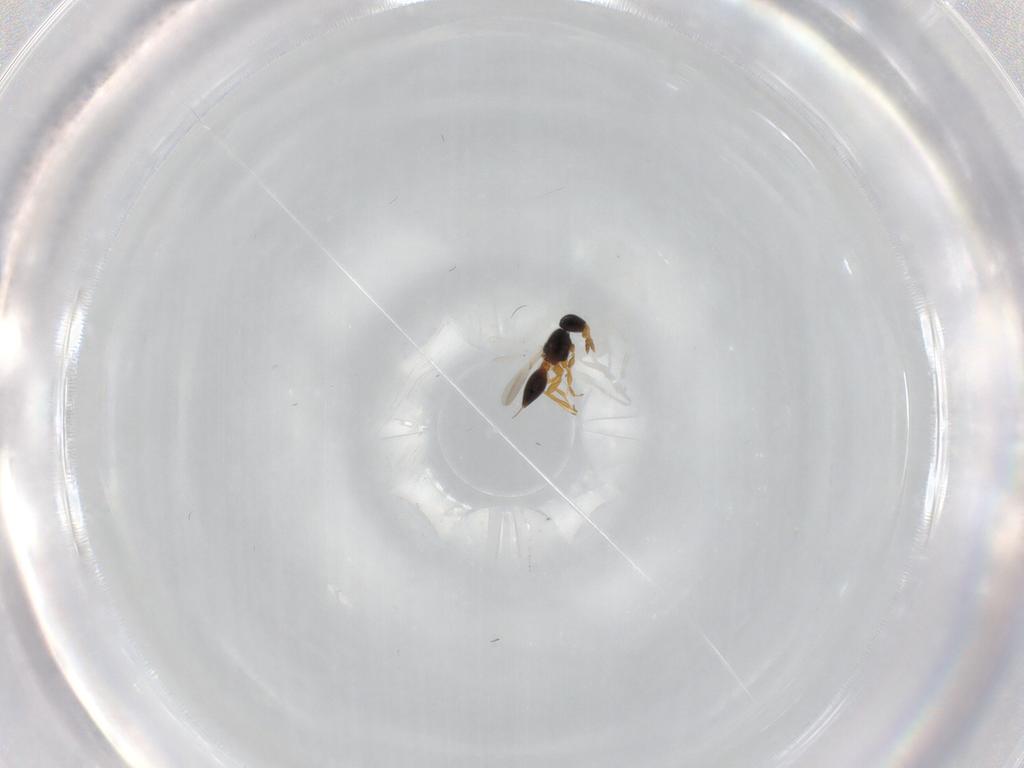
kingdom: Animalia
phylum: Arthropoda
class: Insecta
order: Hymenoptera
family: Platygastridae
